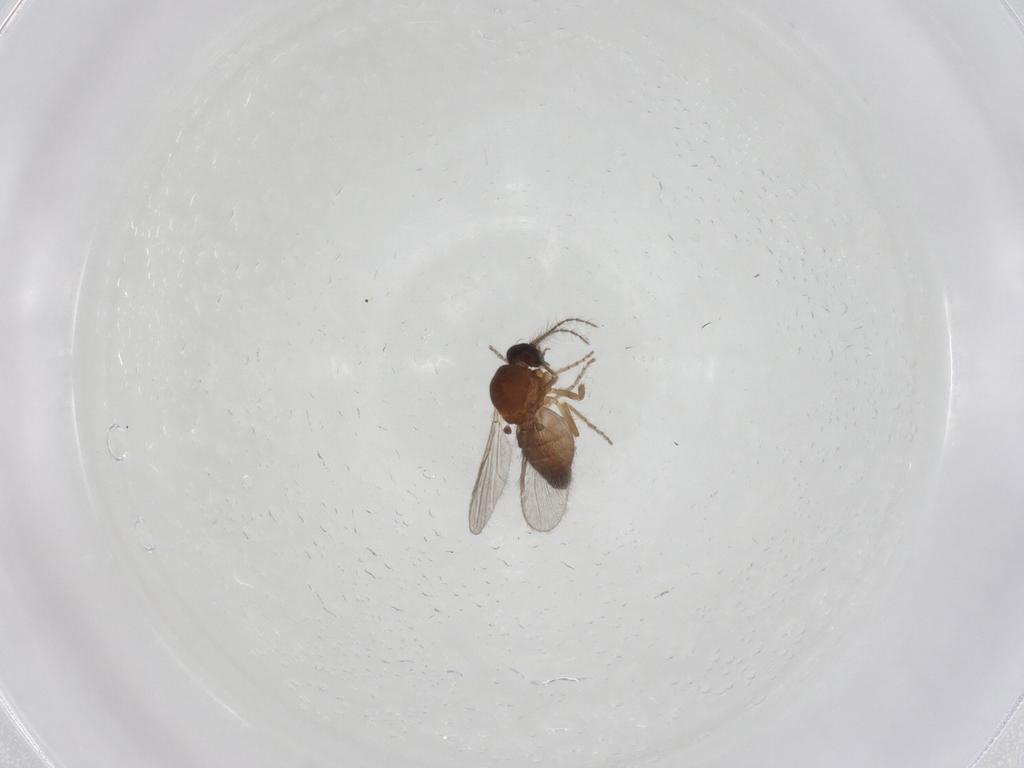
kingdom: Animalia
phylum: Arthropoda
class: Insecta
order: Diptera
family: Ceratopogonidae
